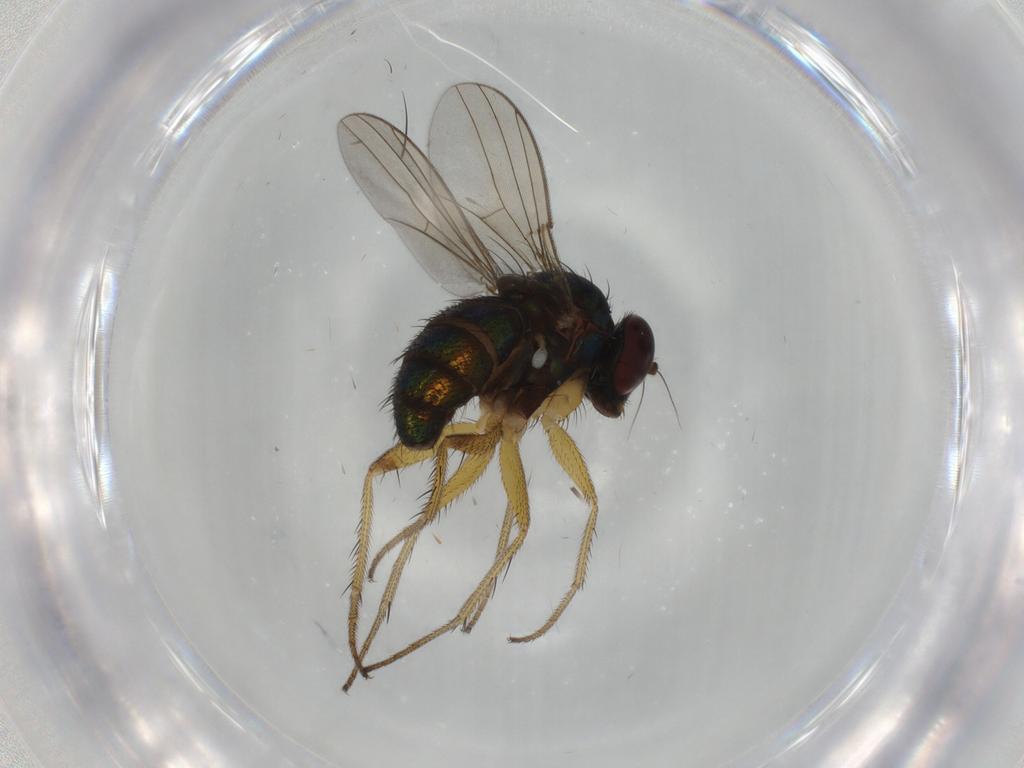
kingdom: Animalia
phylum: Arthropoda
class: Insecta
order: Diptera
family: Dolichopodidae
